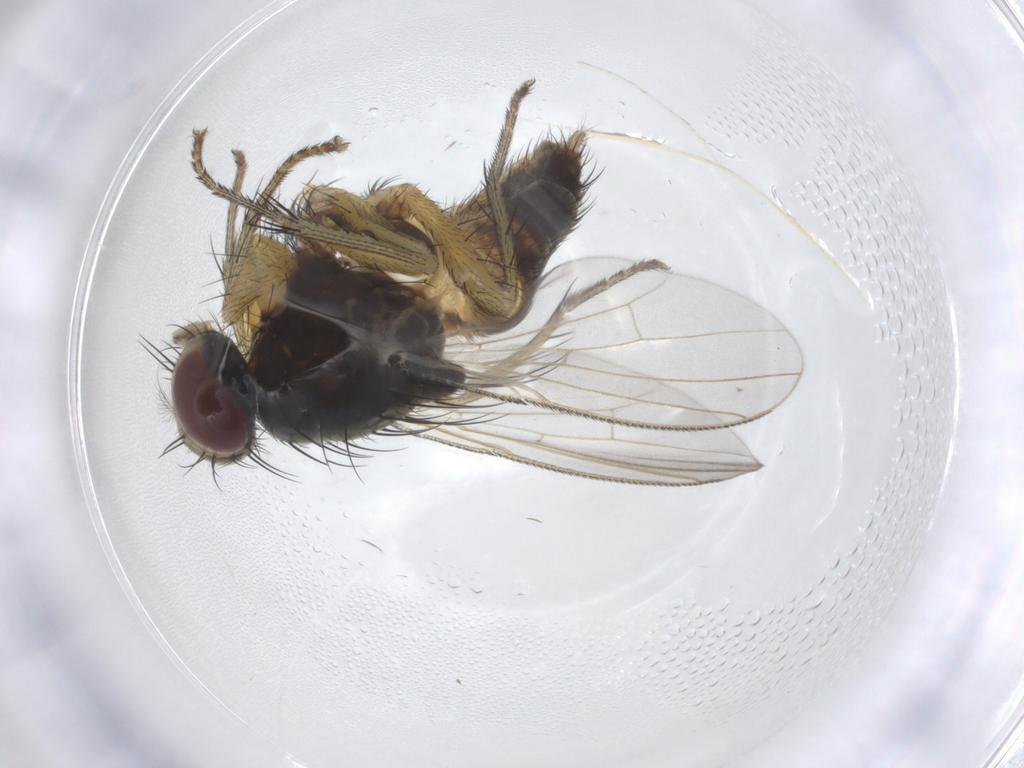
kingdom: Animalia
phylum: Arthropoda
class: Insecta
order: Diptera
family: Muscidae
